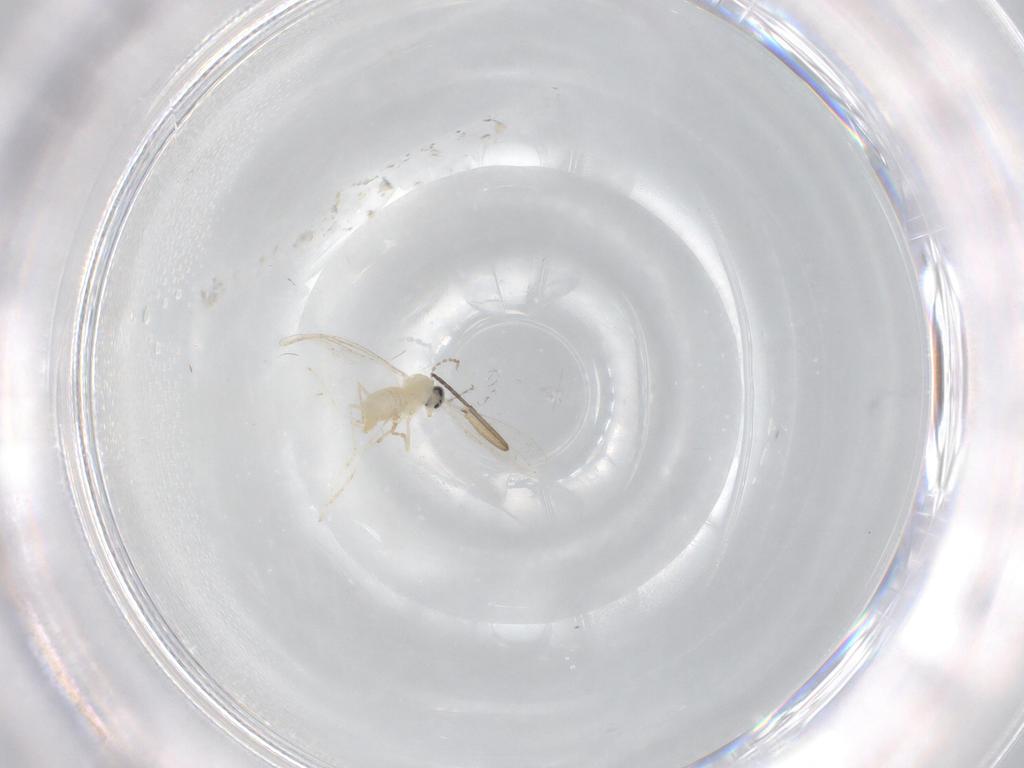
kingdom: Animalia
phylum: Arthropoda
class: Insecta
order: Diptera
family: Cecidomyiidae
